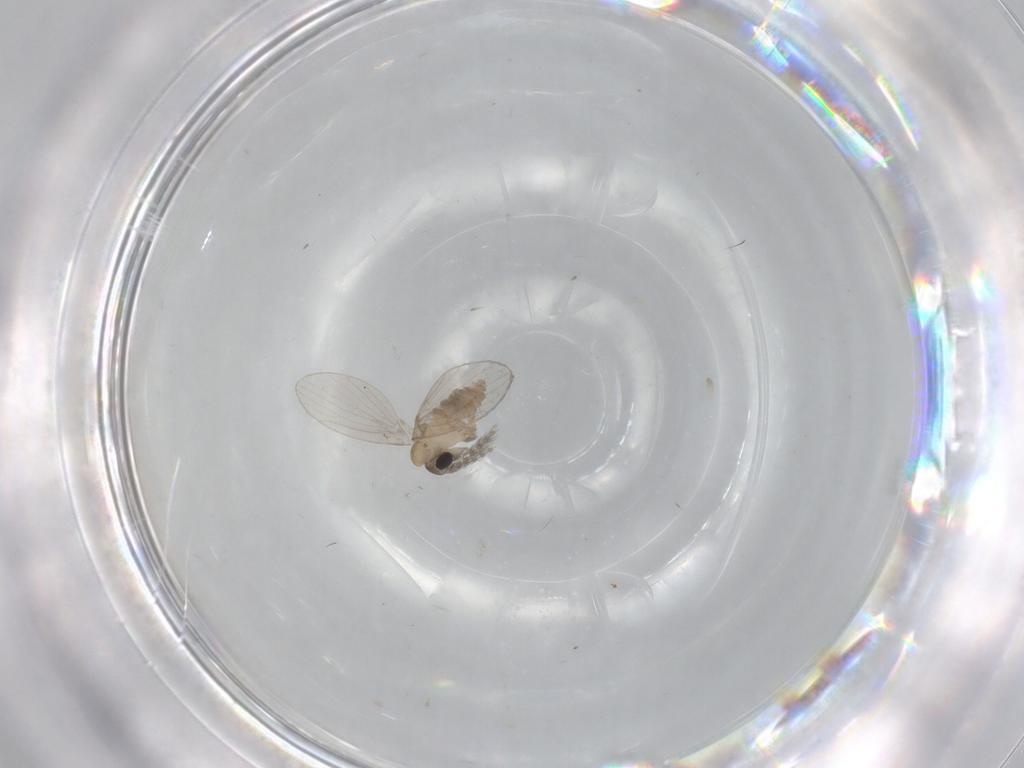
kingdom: Animalia
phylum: Arthropoda
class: Insecta
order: Diptera
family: Psychodidae
